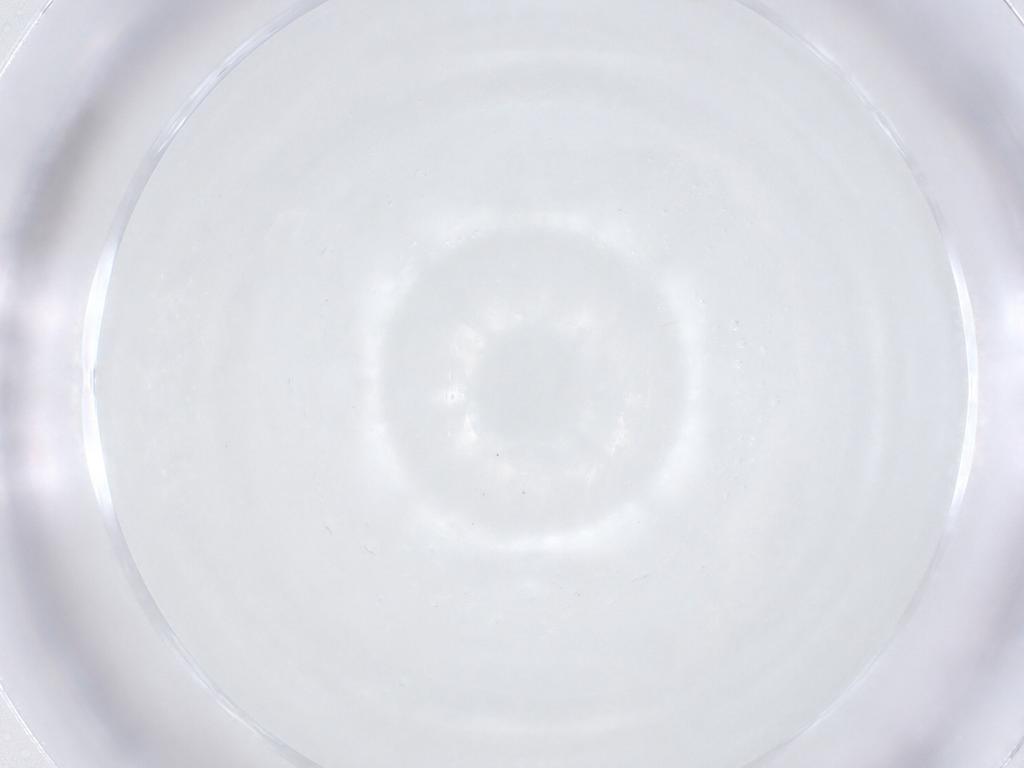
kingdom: Animalia
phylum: Arthropoda
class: Arachnida
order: Trombidiformes
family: Pionidae
